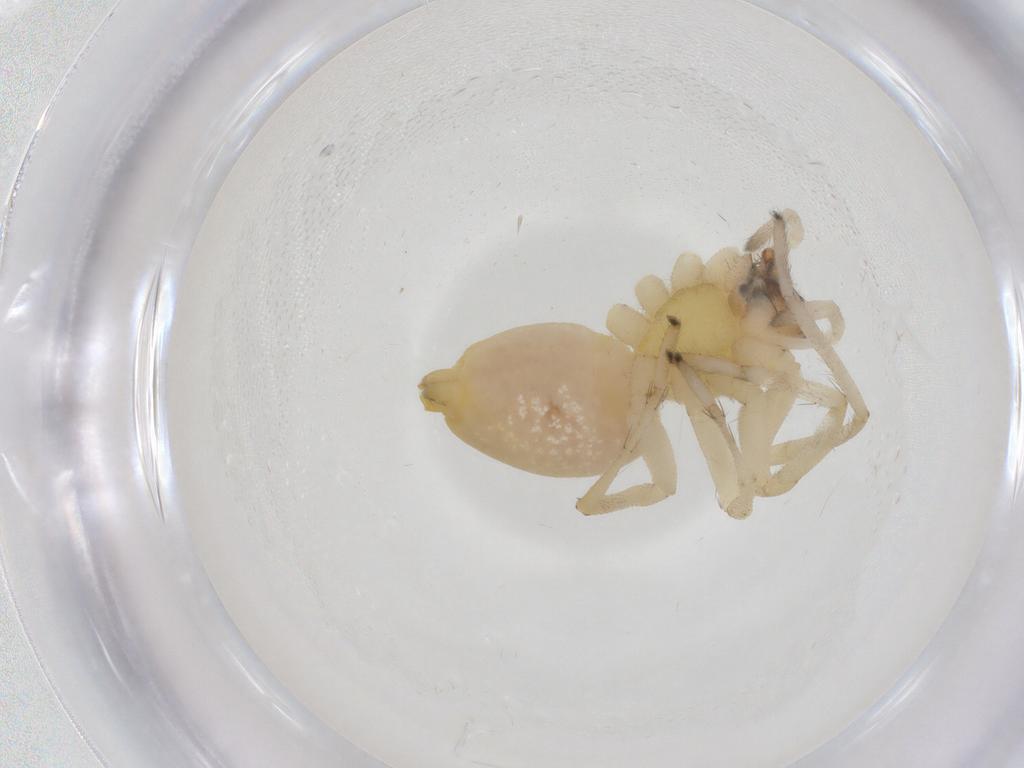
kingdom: Animalia
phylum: Arthropoda
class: Arachnida
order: Araneae
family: Cheiracanthiidae
